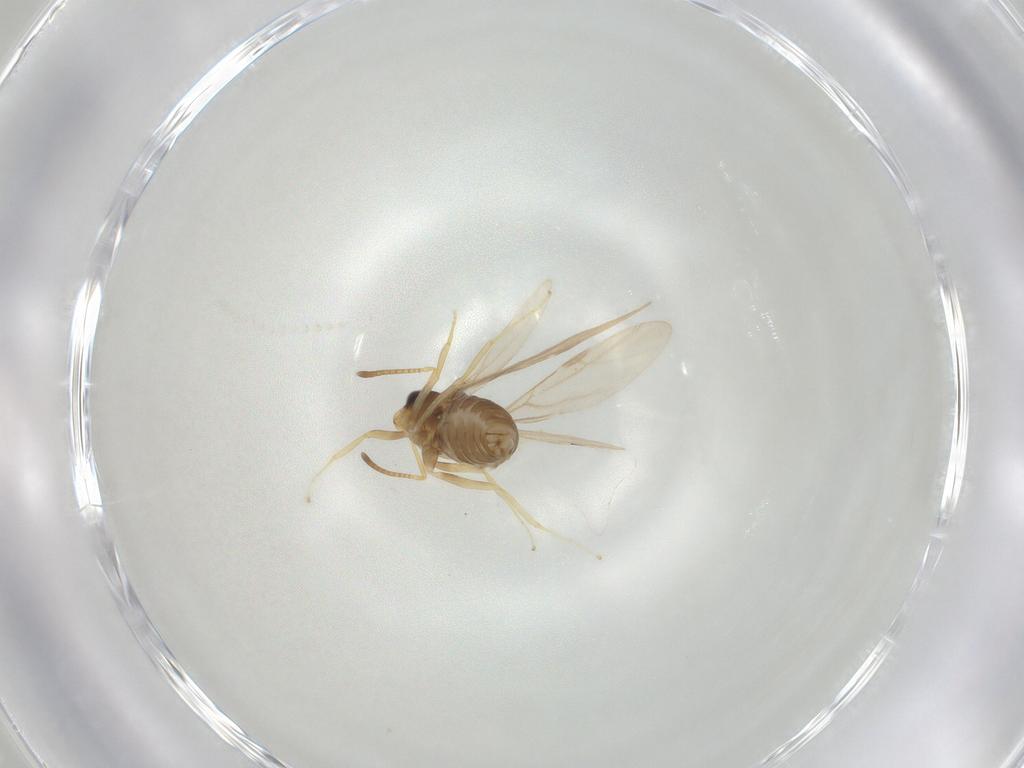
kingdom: Animalia
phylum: Arthropoda
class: Insecta
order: Hymenoptera
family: Formicidae
